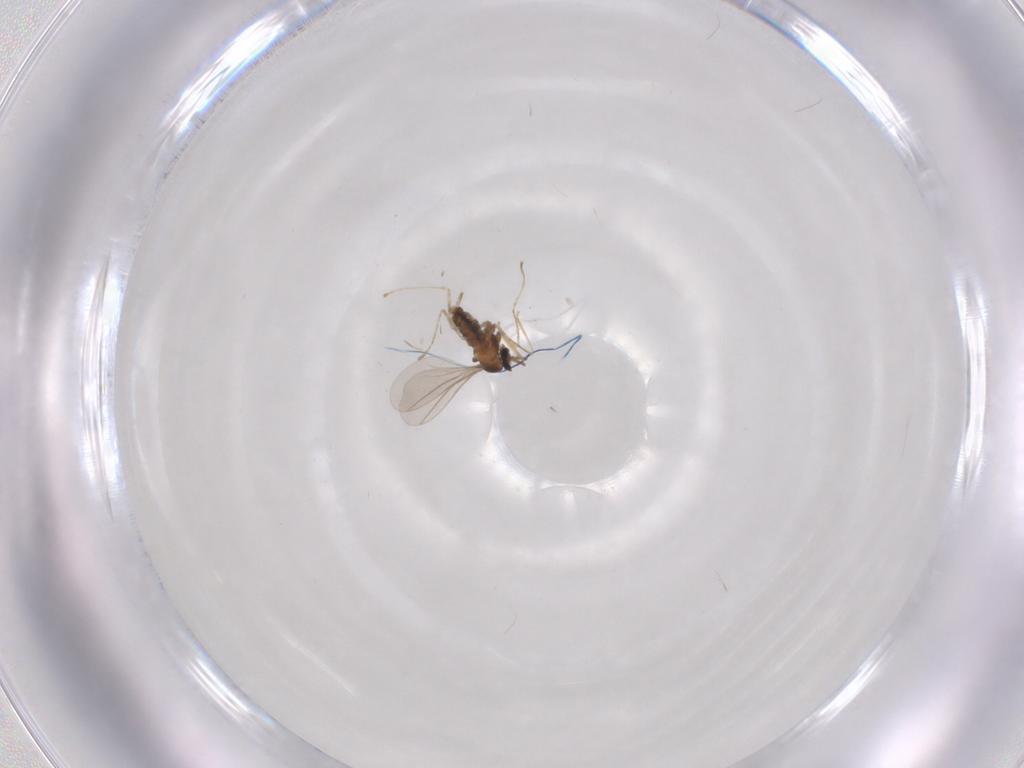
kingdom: Animalia
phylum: Arthropoda
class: Insecta
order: Diptera
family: Cecidomyiidae
